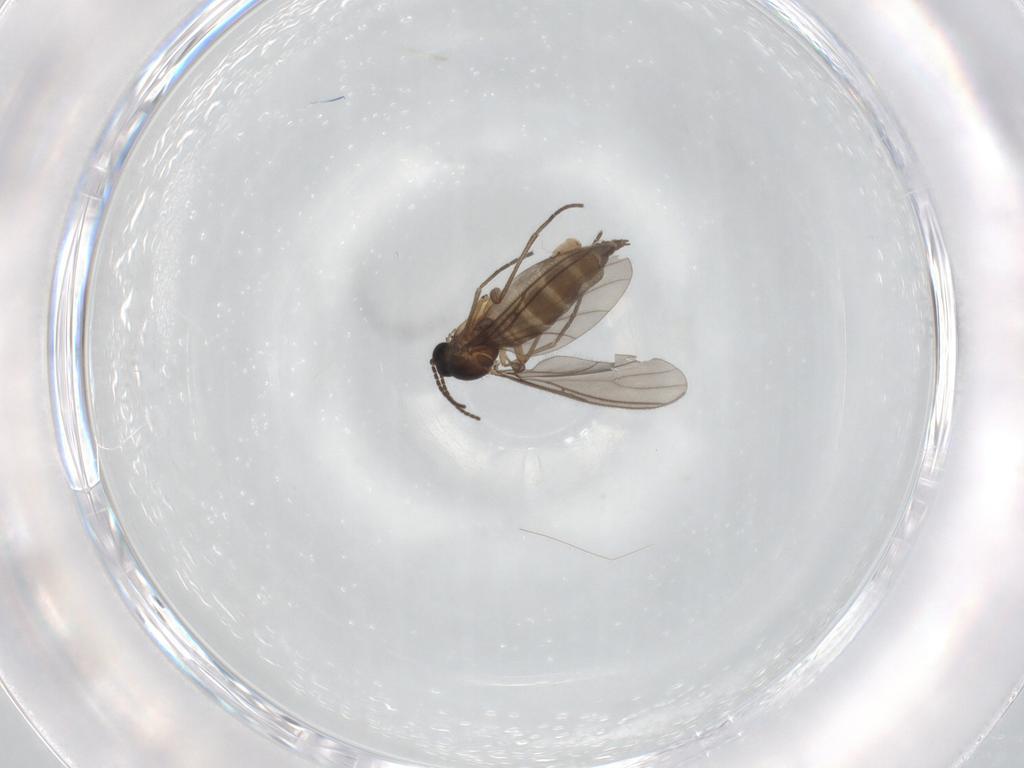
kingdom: Animalia
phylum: Arthropoda
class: Insecta
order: Diptera
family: Sciaridae
